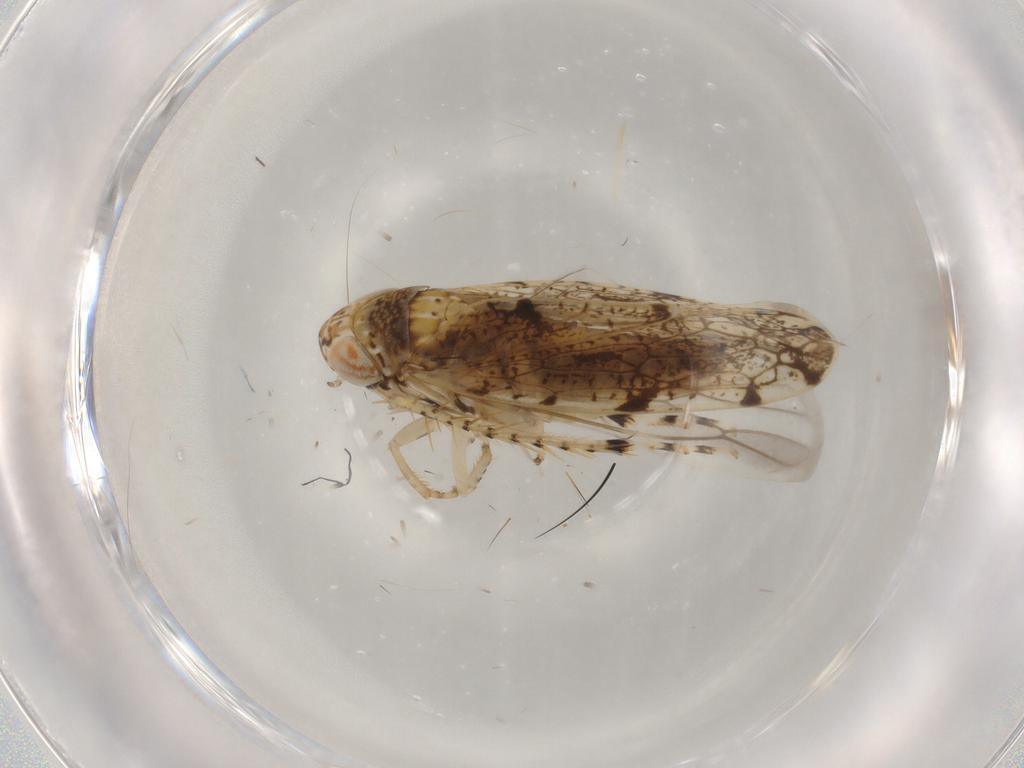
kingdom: Animalia
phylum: Arthropoda
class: Insecta
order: Hemiptera
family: Cicadellidae
